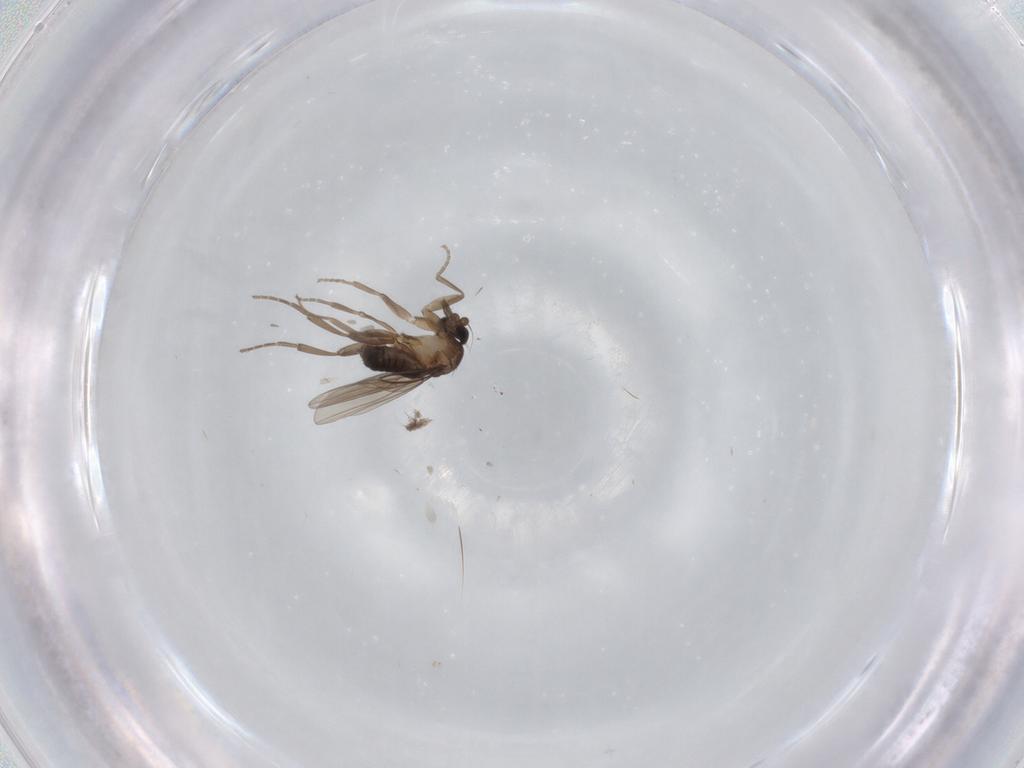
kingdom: Animalia
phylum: Arthropoda
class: Insecta
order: Diptera
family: Phoridae
